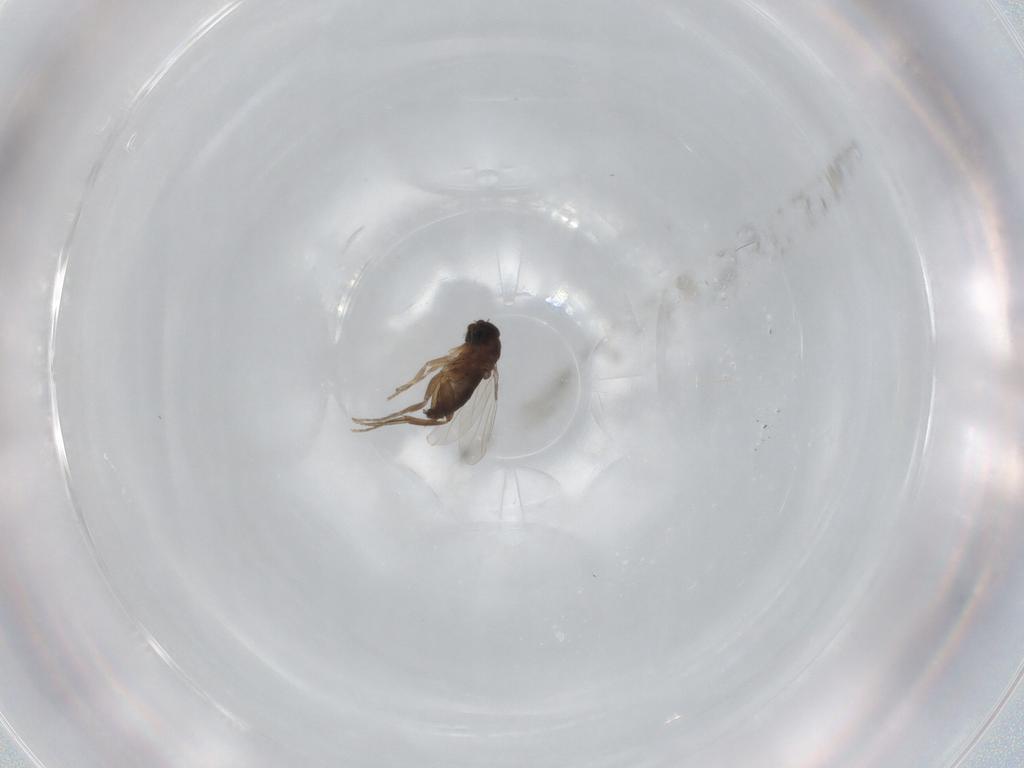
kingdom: Animalia
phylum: Arthropoda
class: Insecta
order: Diptera
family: Phoridae
